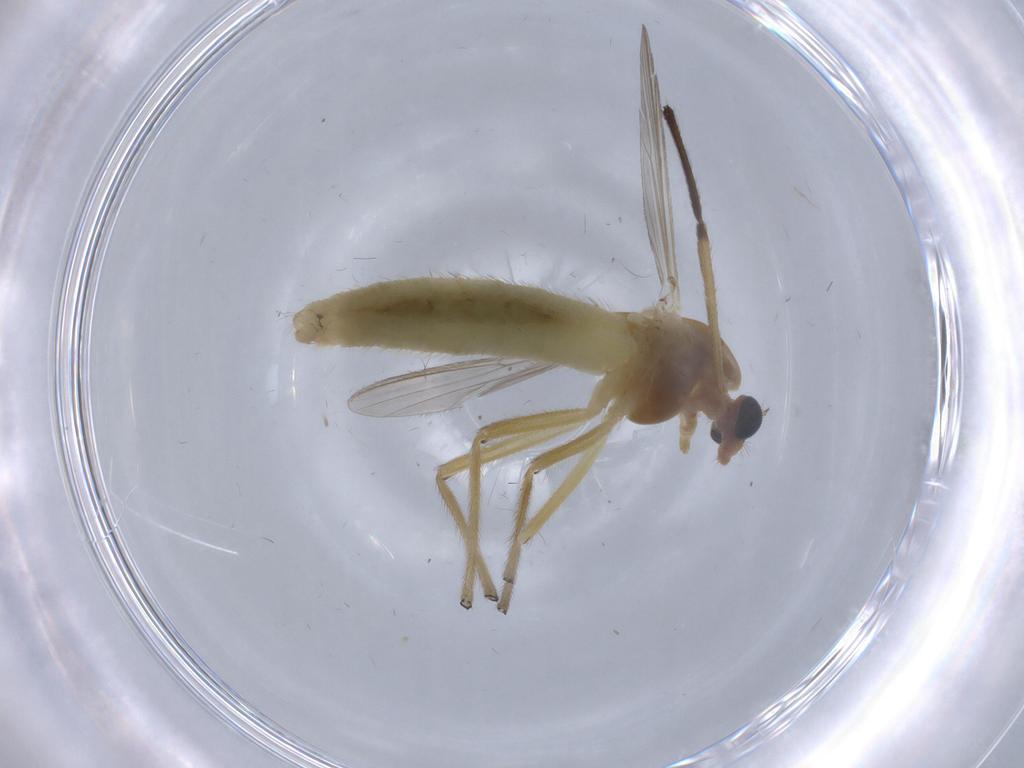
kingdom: Animalia
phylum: Arthropoda
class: Insecta
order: Diptera
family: Chironomidae
